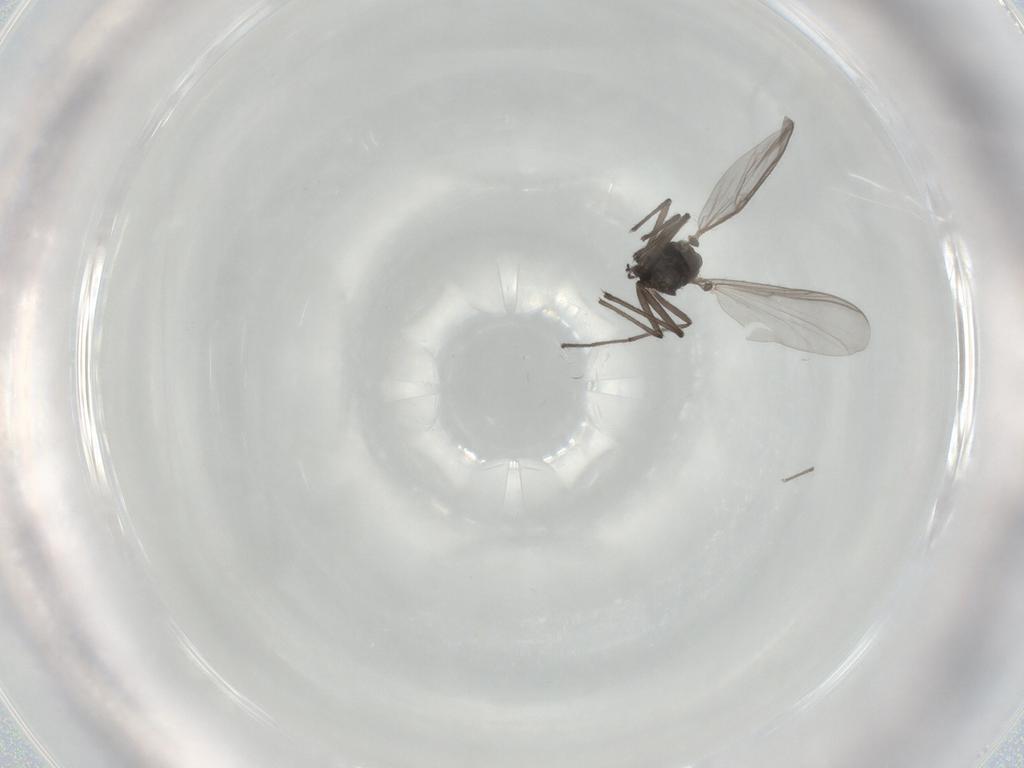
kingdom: Animalia
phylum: Arthropoda
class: Insecta
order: Diptera
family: Chironomidae
